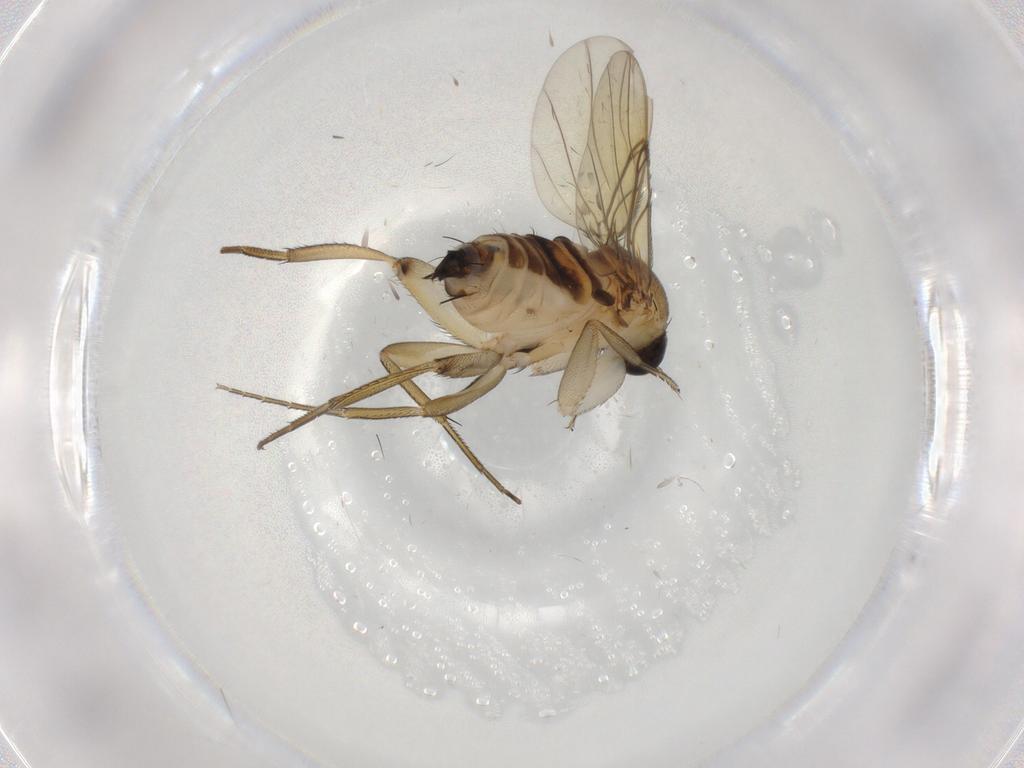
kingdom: Animalia
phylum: Arthropoda
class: Insecta
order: Diptera
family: Phoridae
